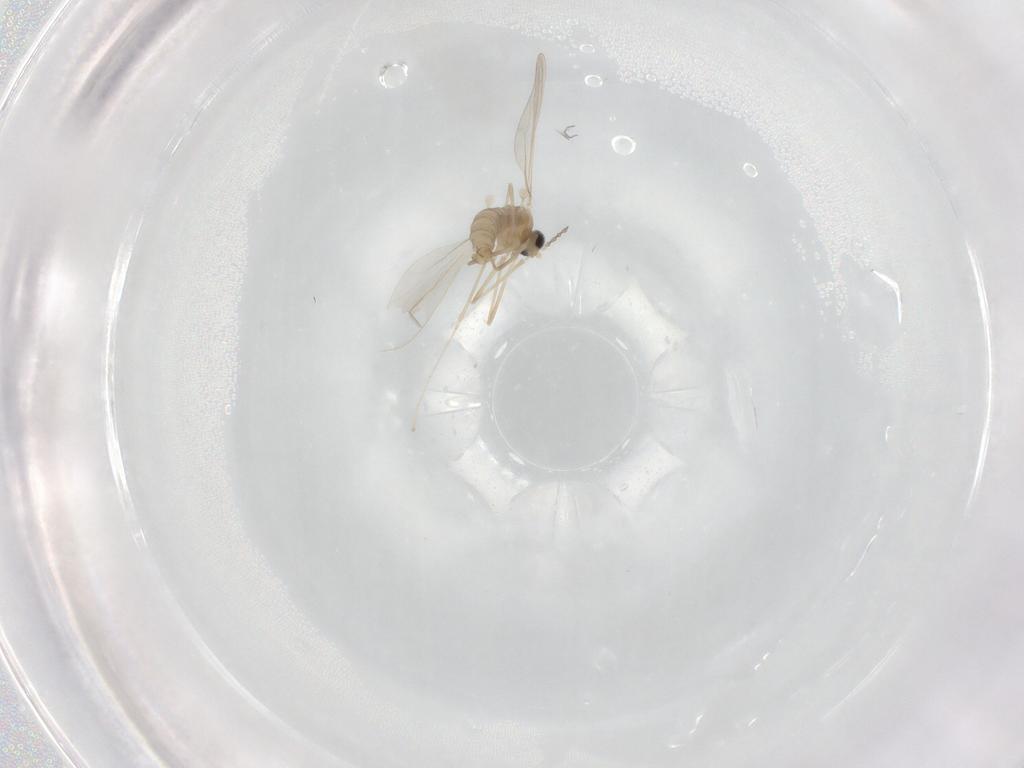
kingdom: Animalia
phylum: Arthropoda
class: Insecta
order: Diptera
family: Cecidomyiidae
